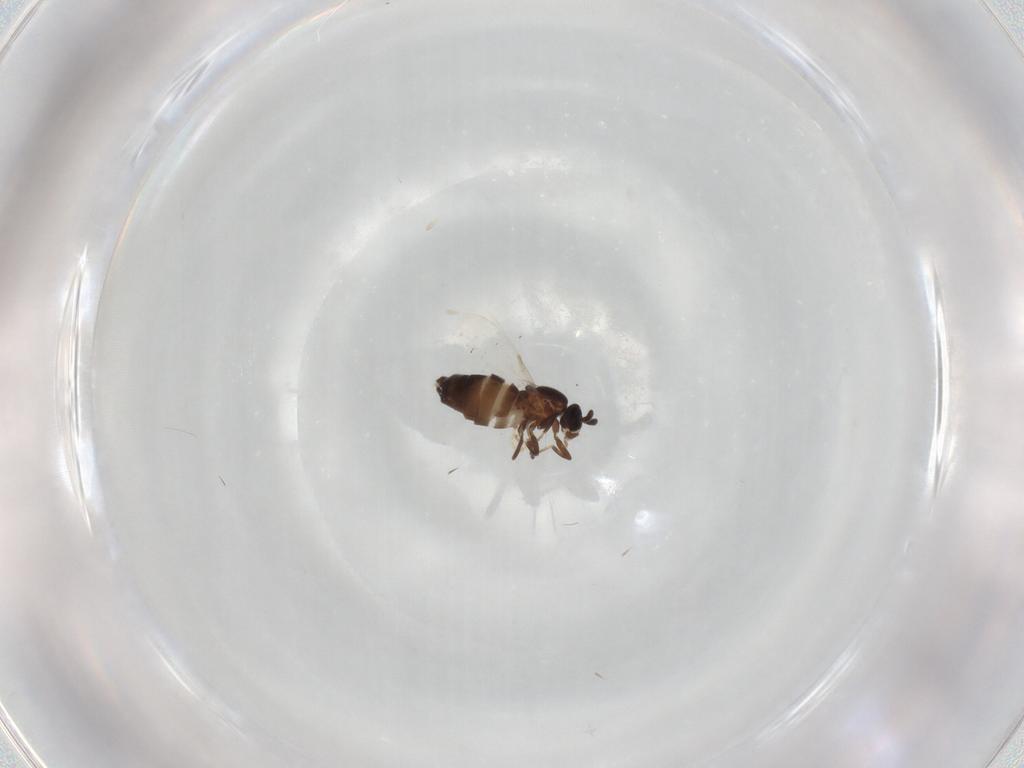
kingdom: Animalia
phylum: Arthropoda
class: Insecta
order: Diptera
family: Scatopsidae
